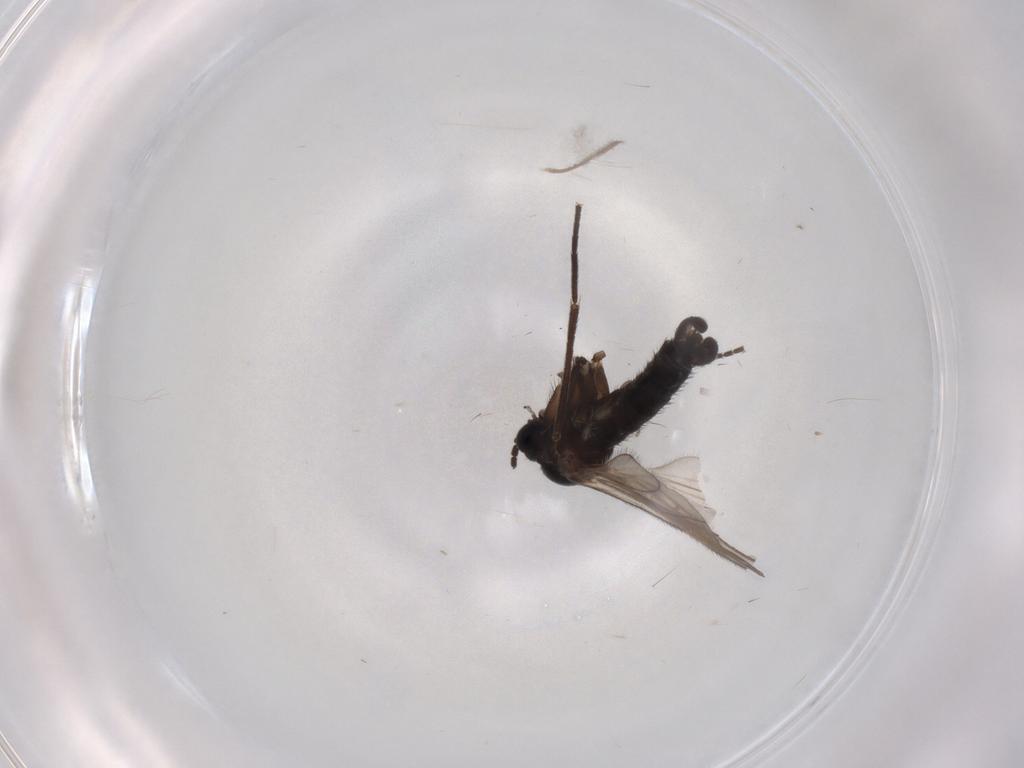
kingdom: Animalia
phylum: Arthropoda
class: Insecta
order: Diptera
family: Sciaridae
